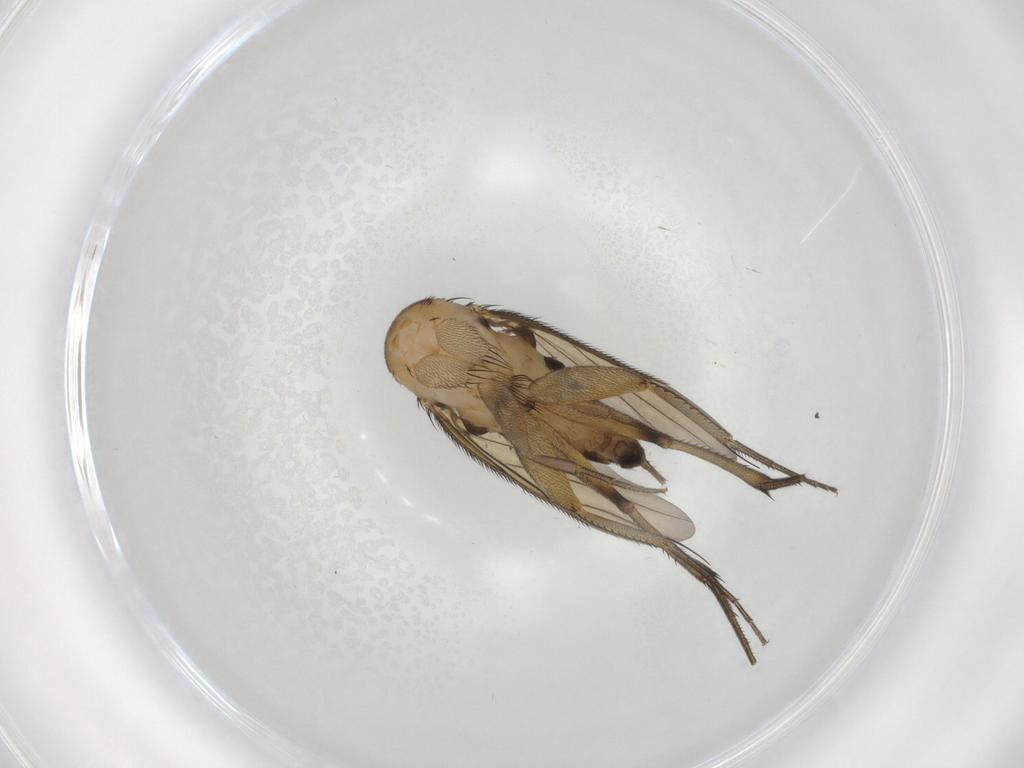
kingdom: Animalia
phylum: Arthropoda
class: Insecta
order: Diptera
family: Phoridae
